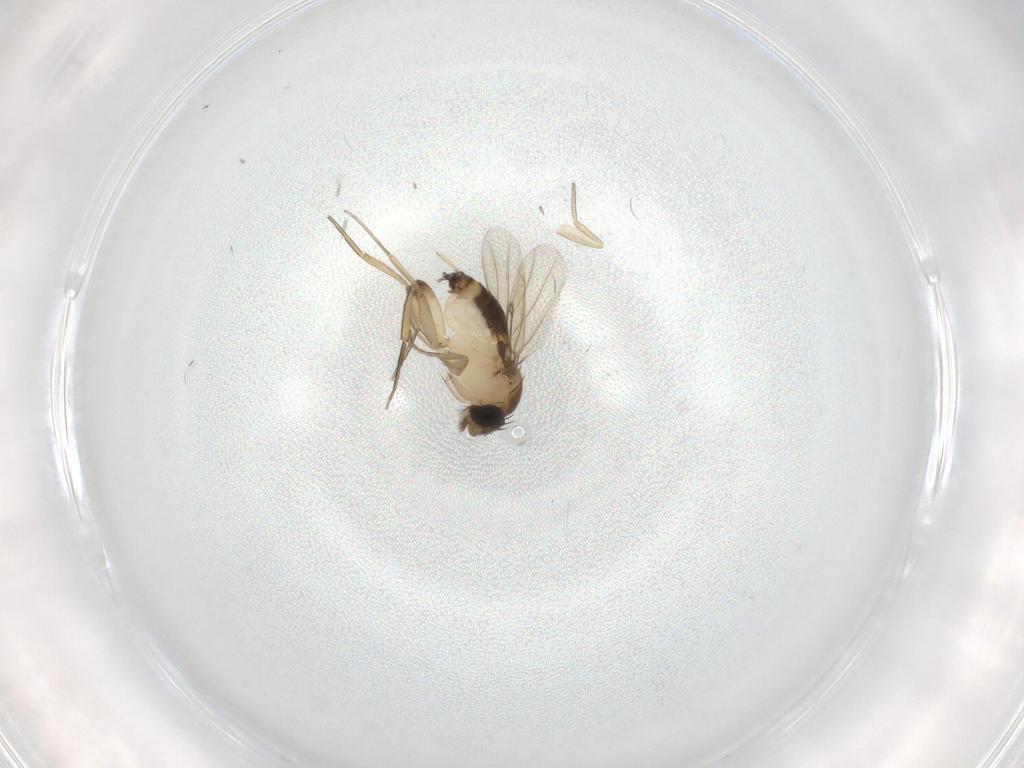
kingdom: Animalia
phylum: Arthropoda
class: Insecta
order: Diptera
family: Phoridae
